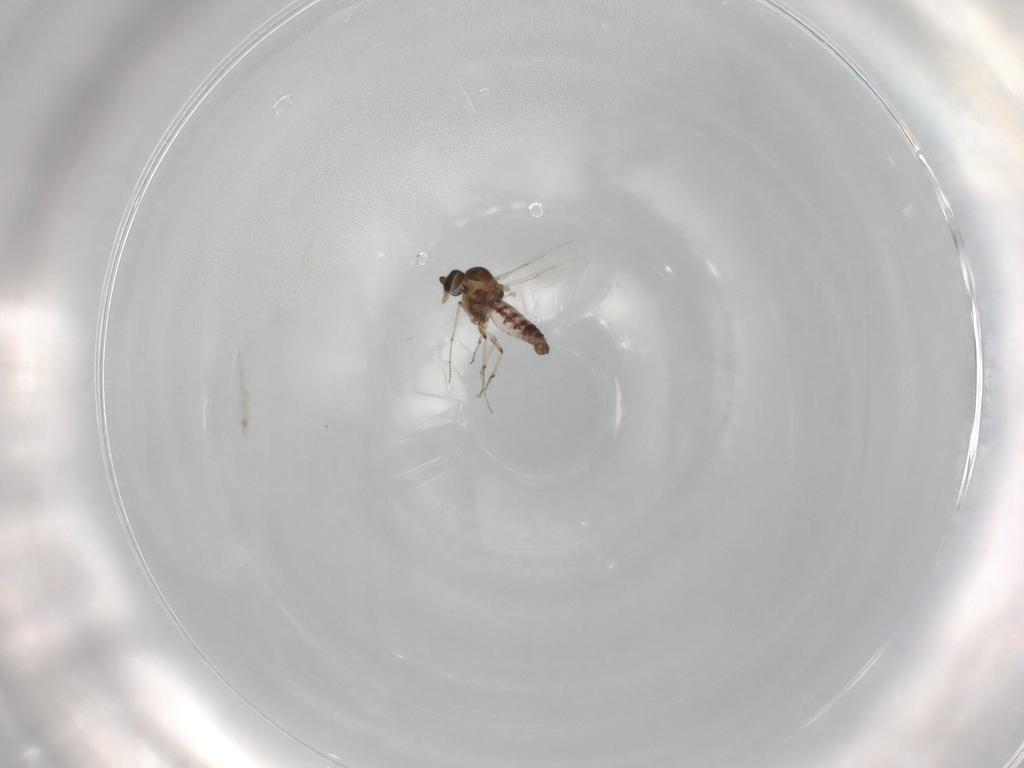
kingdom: Animalia
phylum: Arthropoda
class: Insecta
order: Diptera
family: Ceratopogonidae
